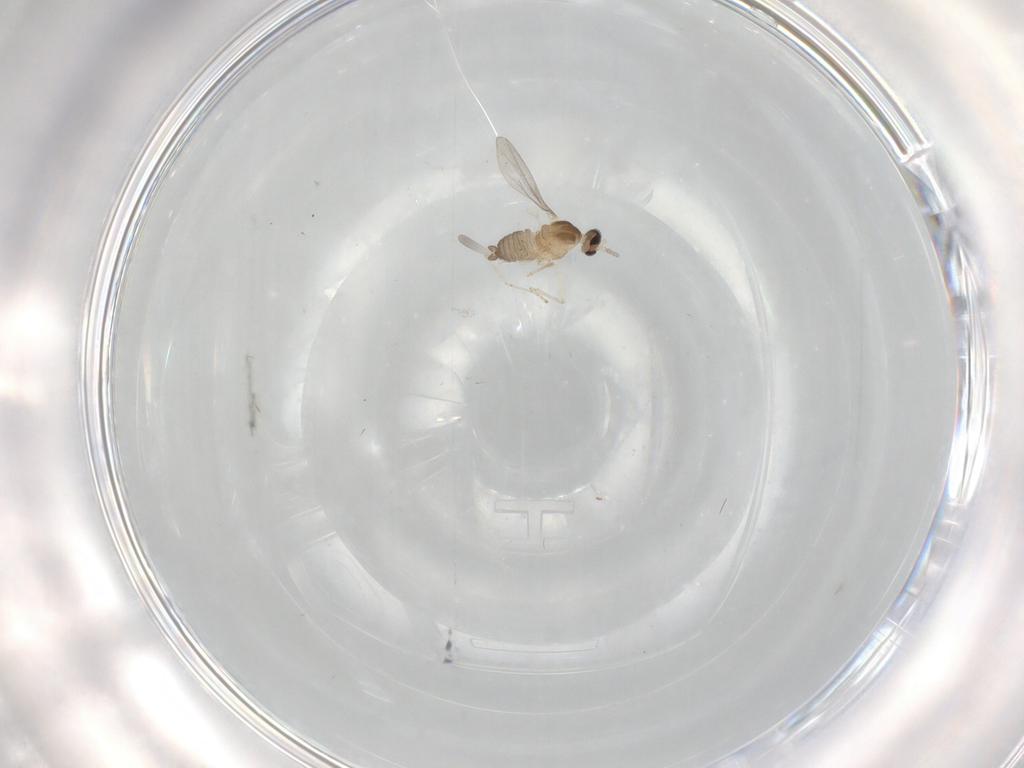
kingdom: Animalia
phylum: Arthropoda
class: Insecta
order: Diptera
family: Cecidomyiidae
